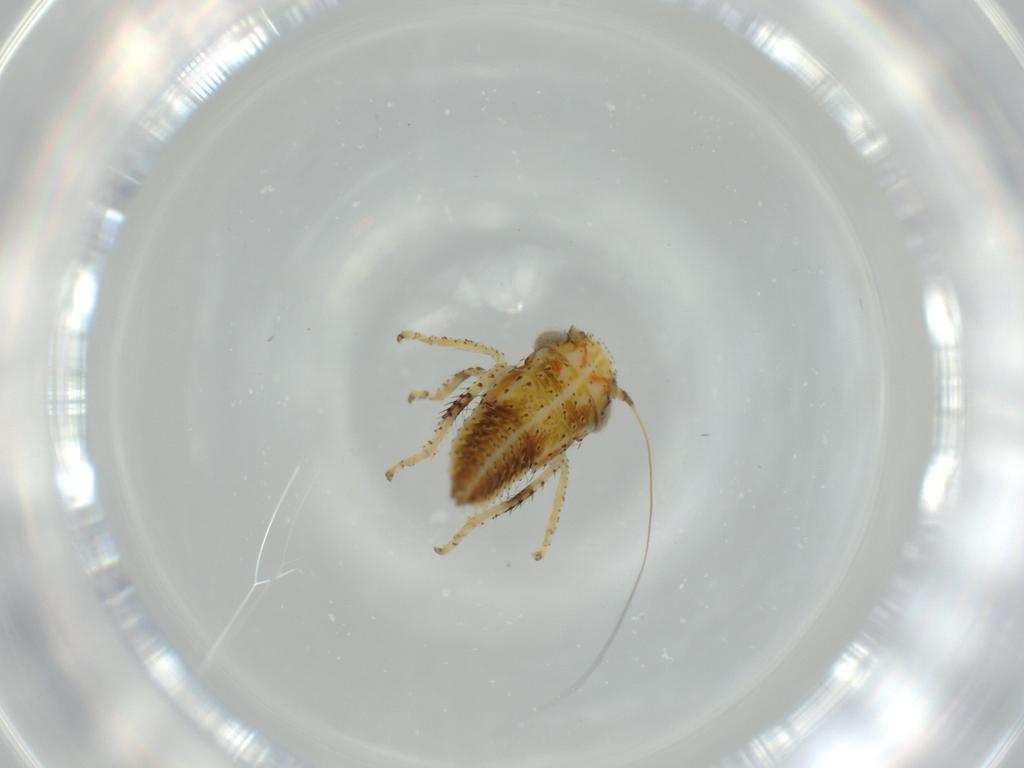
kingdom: Animalia
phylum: Arthropoda
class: Insecta
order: Hemiptera
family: Cicadellidae
